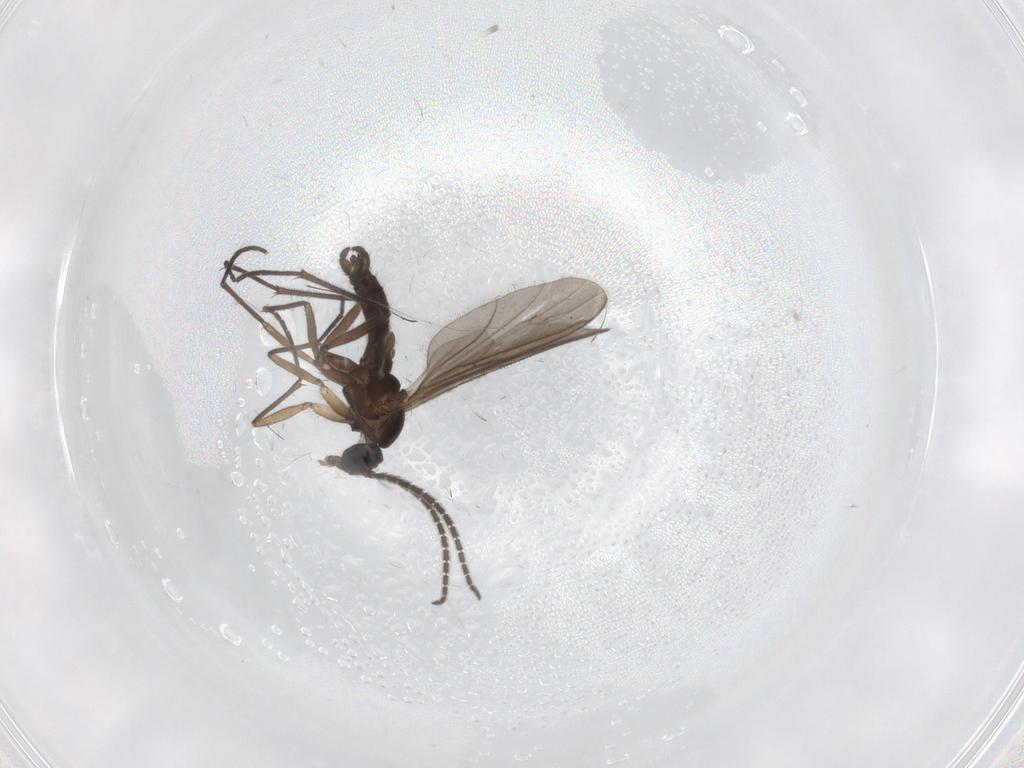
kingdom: Animalia
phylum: Arthropoda
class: Insecta
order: Diptera
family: Sciaridae
